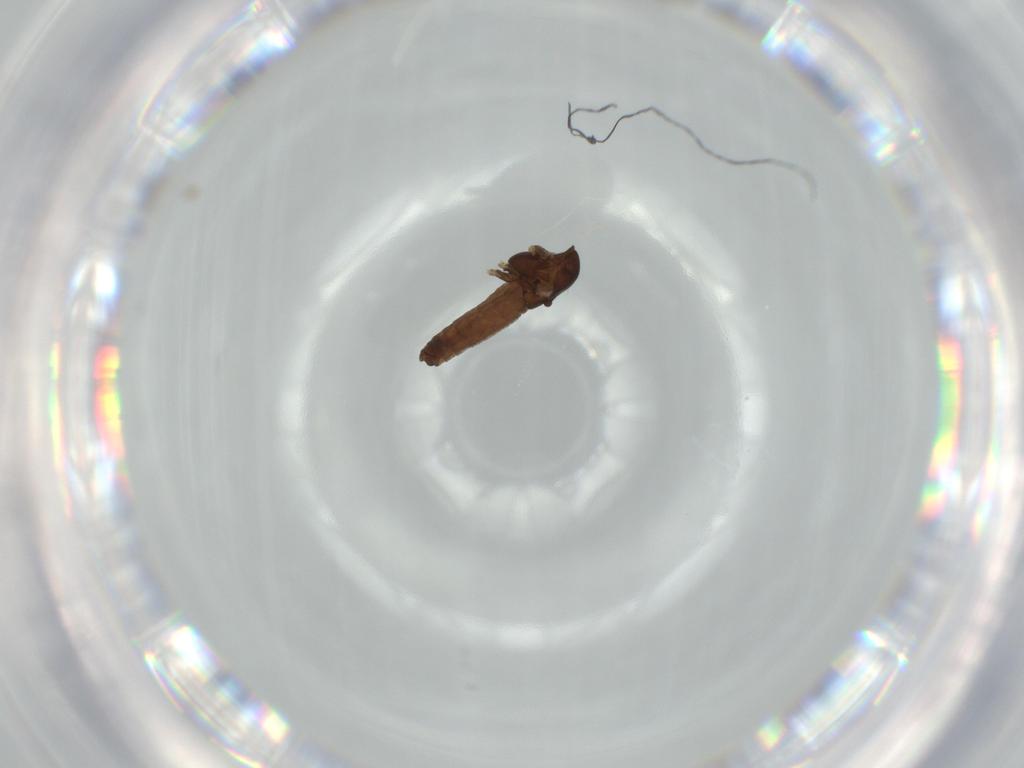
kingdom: Animalia
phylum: Arthropoda
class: Insecta
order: Diptera
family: Chironomidae
